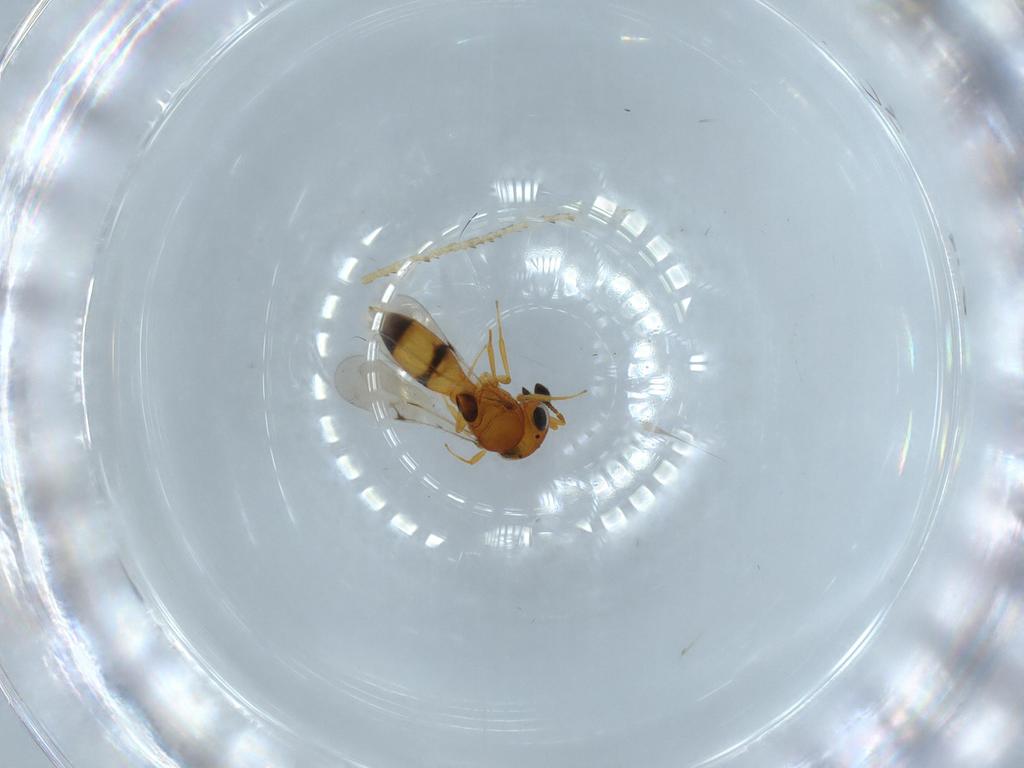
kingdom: Animalia
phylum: Arthropoda
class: Insecta
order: Hymenoptera
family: Scelionidae
